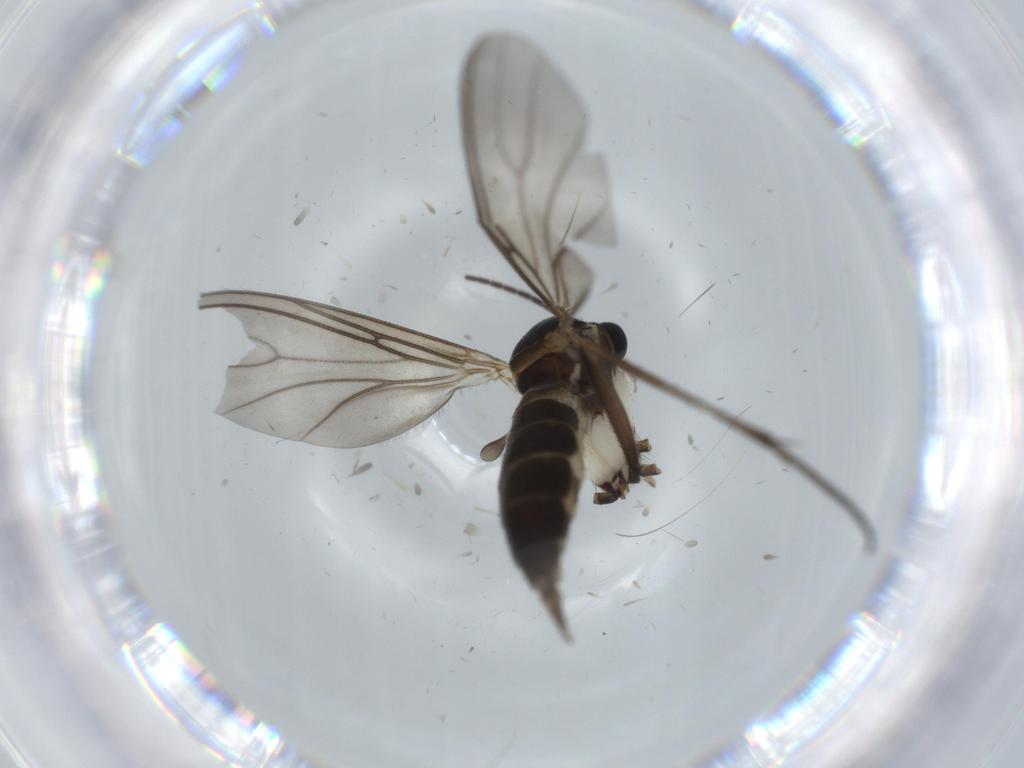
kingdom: Animalia
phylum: Arthropoda
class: Insecta
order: Diptera
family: Sciaridae
